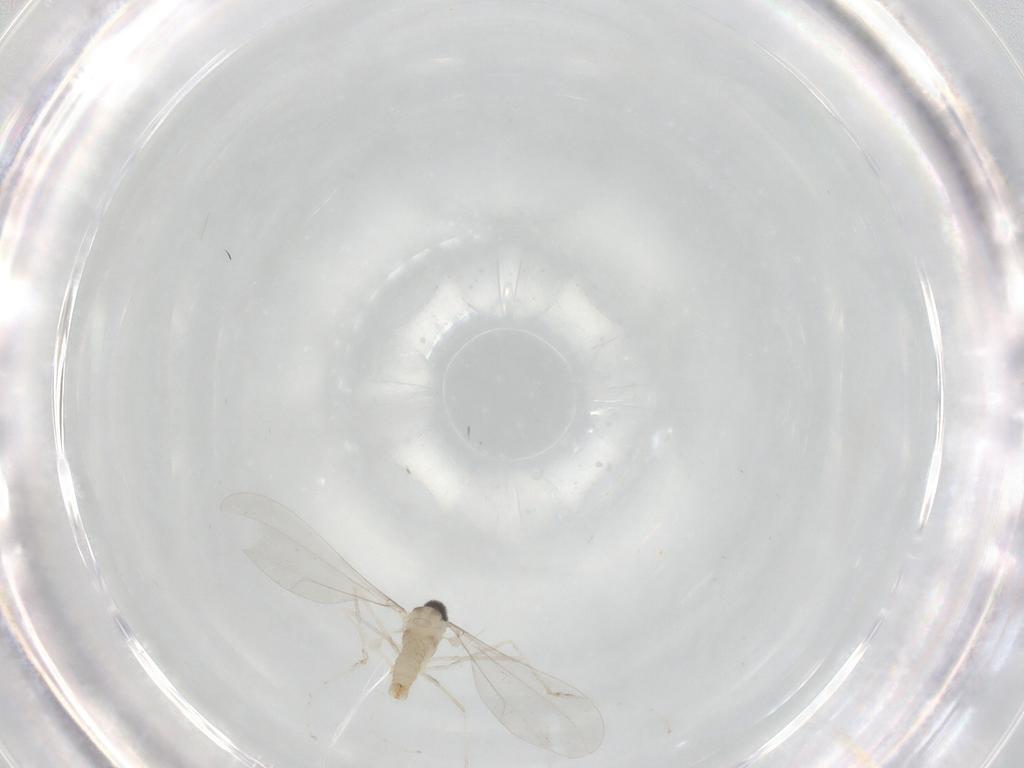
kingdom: Animalia
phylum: Arthropoda
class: Insecta
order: Diptera
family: Cecidomyiidae
